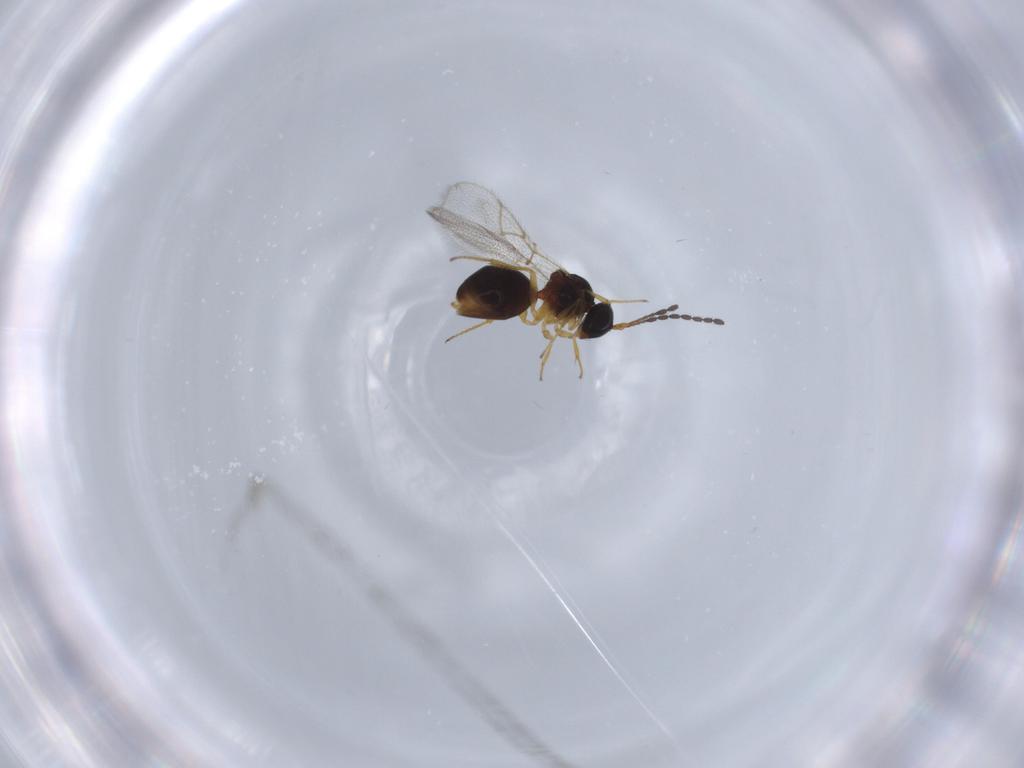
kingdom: Animalia
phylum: Arthropoda
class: Insecta
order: Hymenoptera
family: Figitidae
